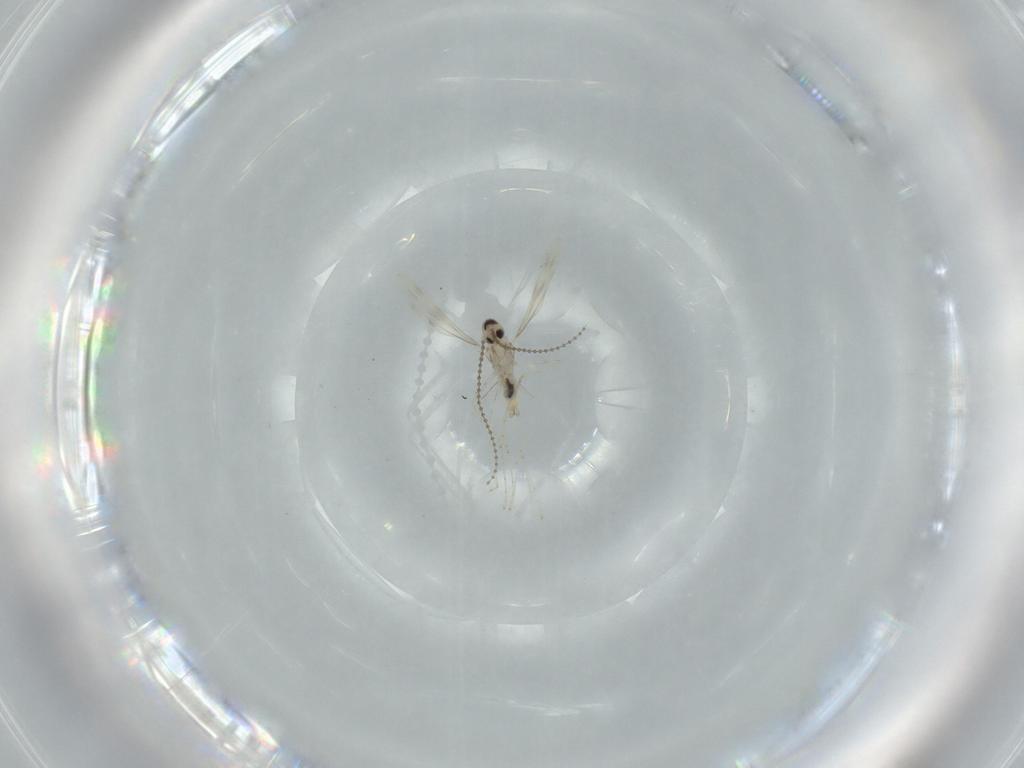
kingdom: Animalia
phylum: Arthropoda
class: Insecta
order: Diptera
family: Cecidomyiidae
